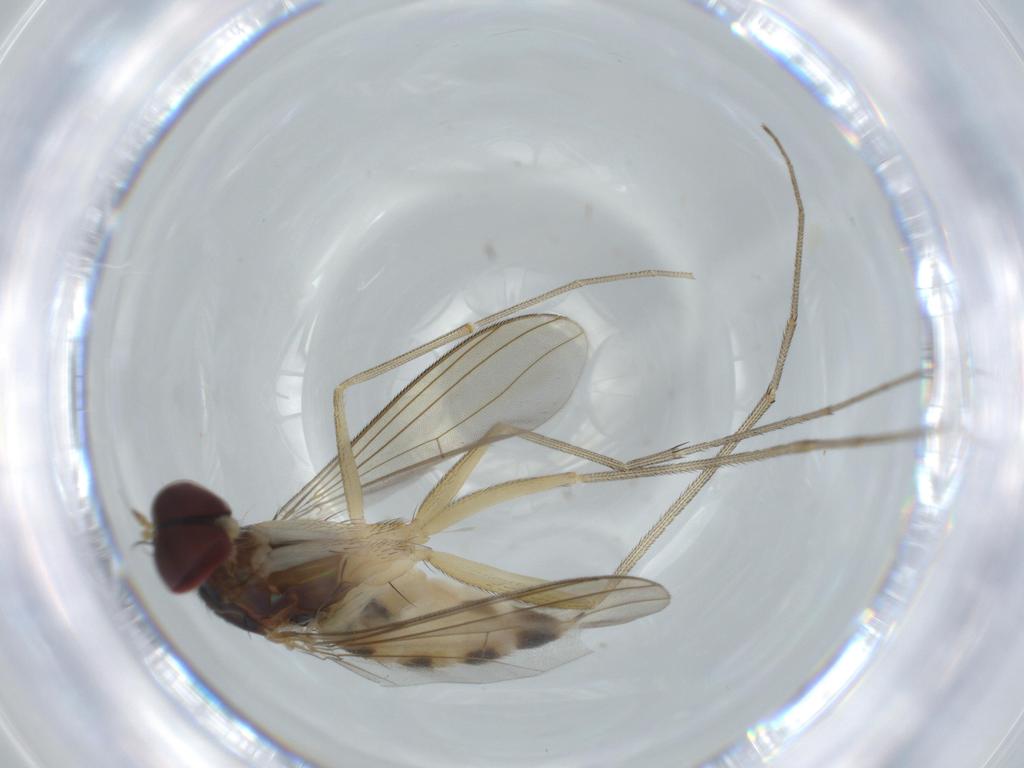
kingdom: Animalia
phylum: Arthropoda
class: Insecta
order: Diptera
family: Dolichopodidae
